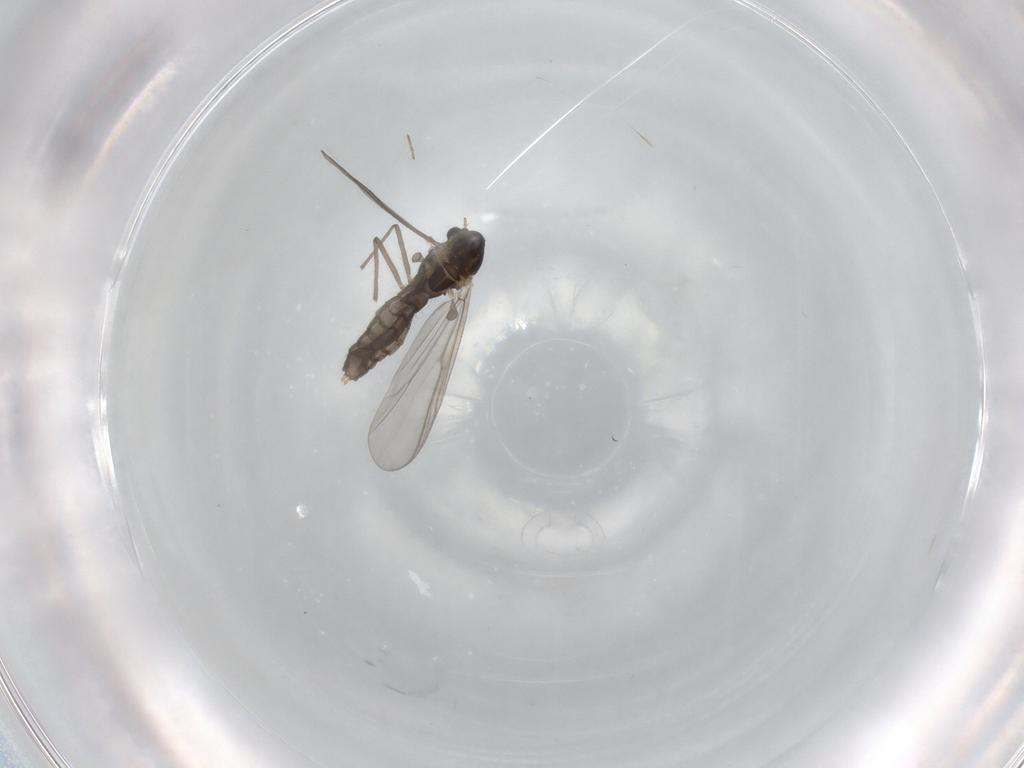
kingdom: Animalia
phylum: Arthropoda
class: Insecta
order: Diptera
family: Chironomidae
